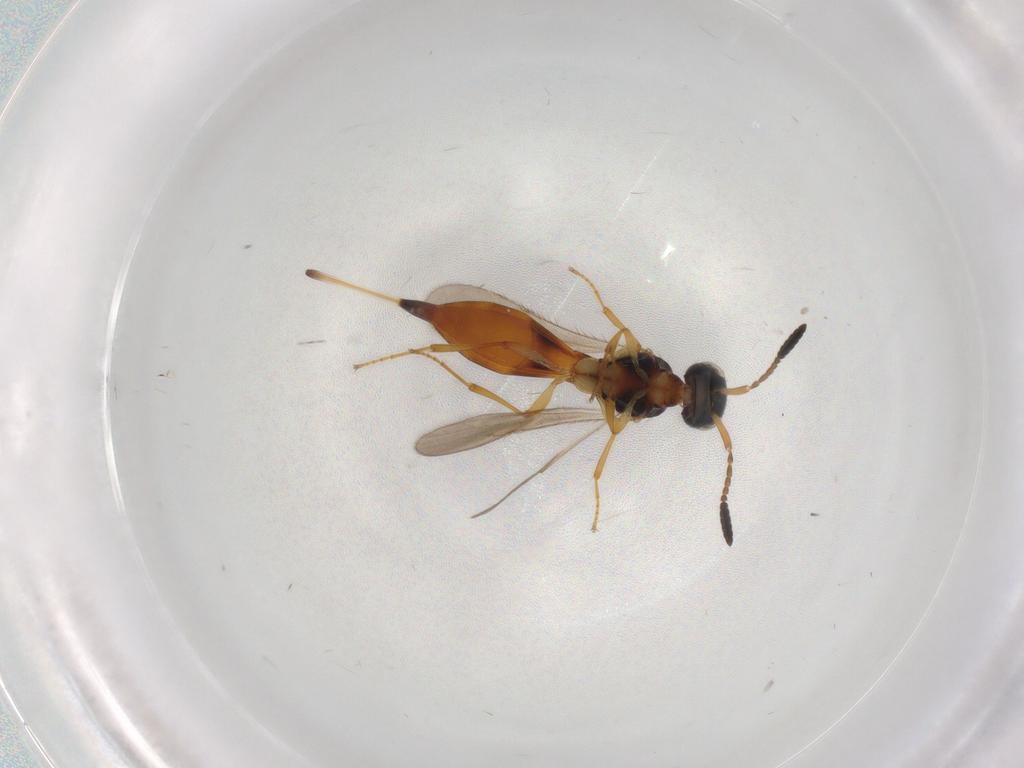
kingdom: Animalia
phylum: Arthropoda
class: Insecta
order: Hymenoptera
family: Scelionidae
